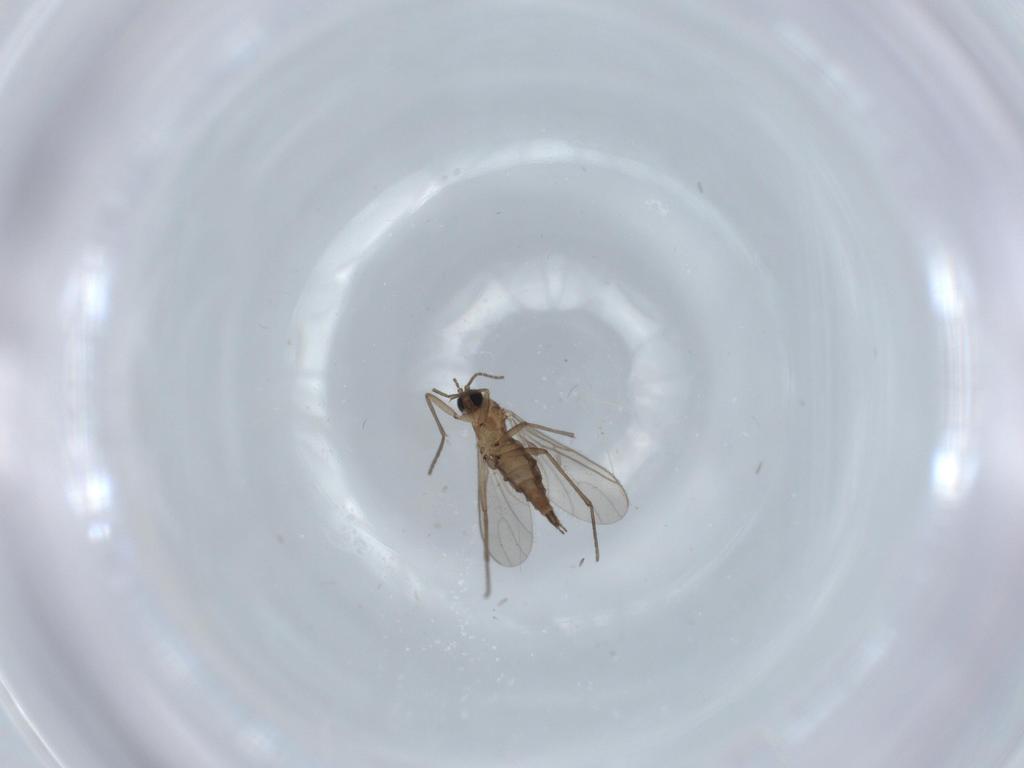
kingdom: Animalia
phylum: Arthropoda
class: Insecta
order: Diptera
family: Sciaridae
